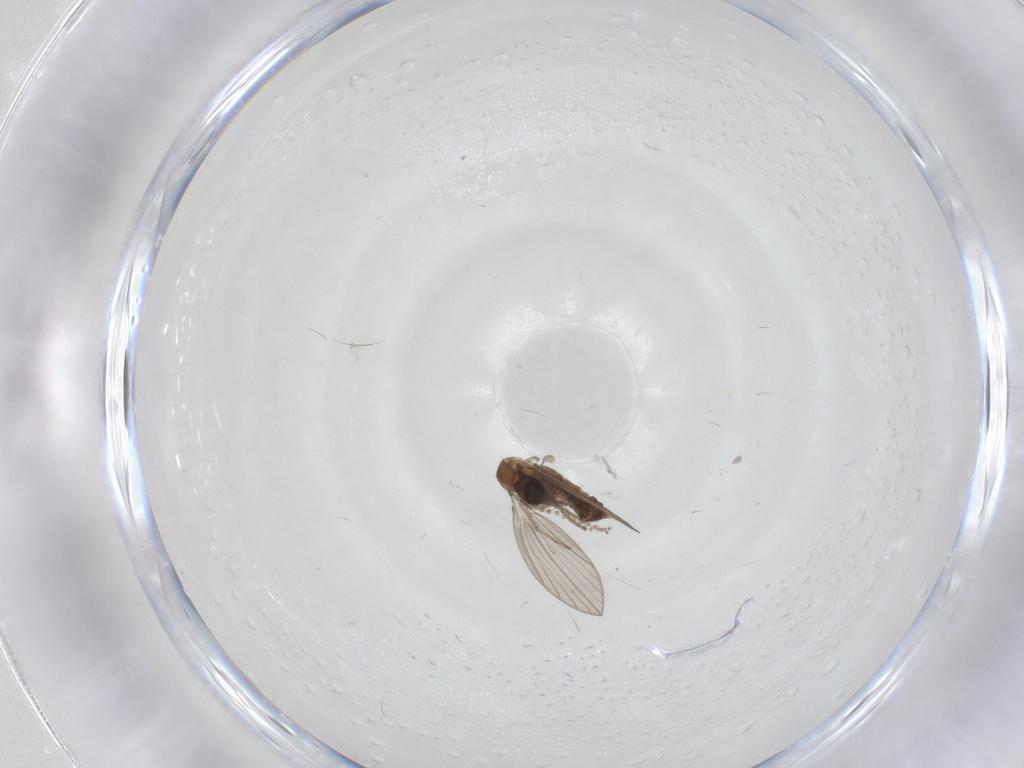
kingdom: Animalia
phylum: Arthropoda
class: Insecta
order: Diptera
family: Psychodidae
